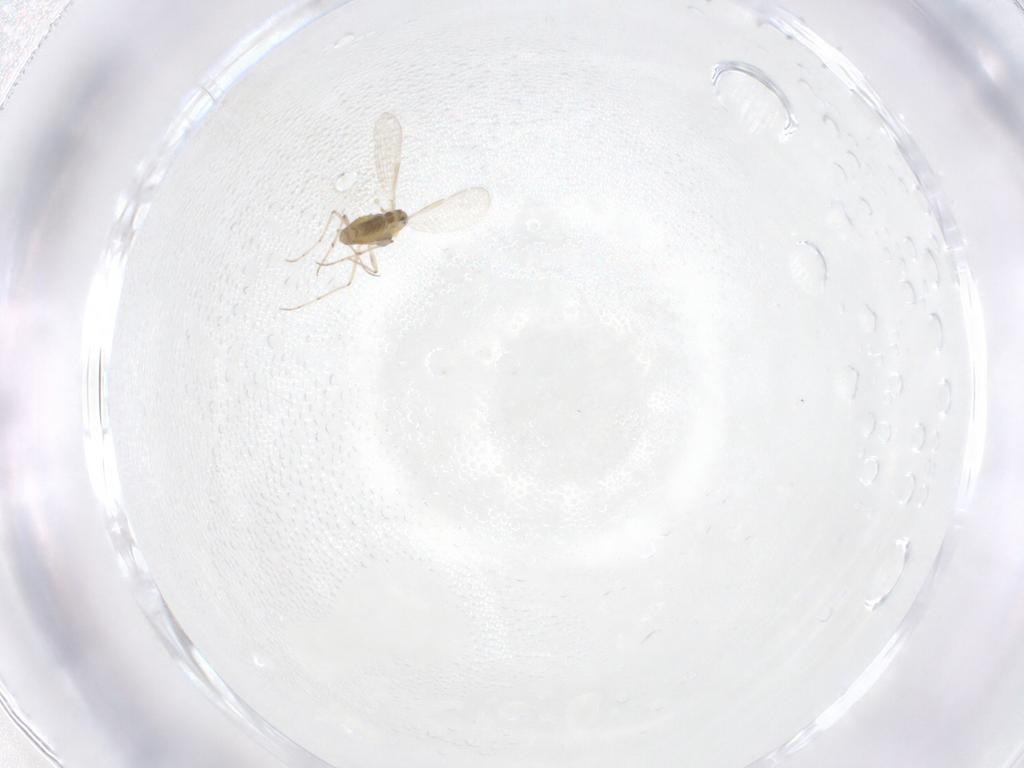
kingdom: Animalia
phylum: Arthropoda
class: Insecta
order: Diptera
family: Chironomidae
